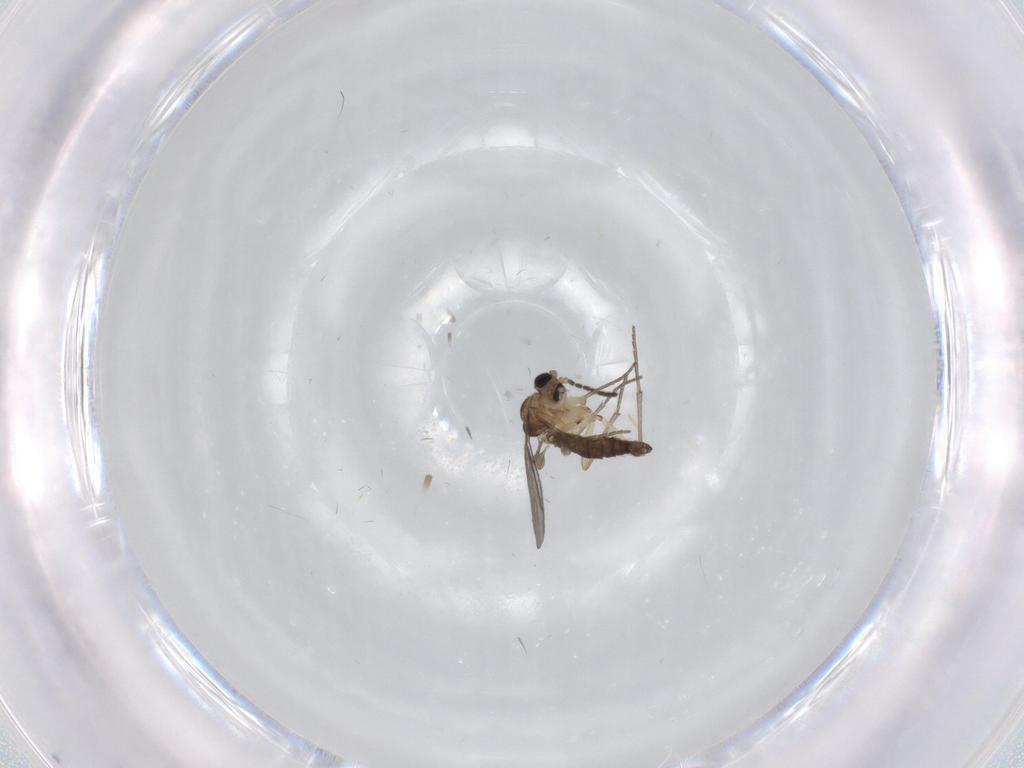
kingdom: Animalia
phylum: Arthropoda
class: Insecta
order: Diptera
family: Sciaridae
